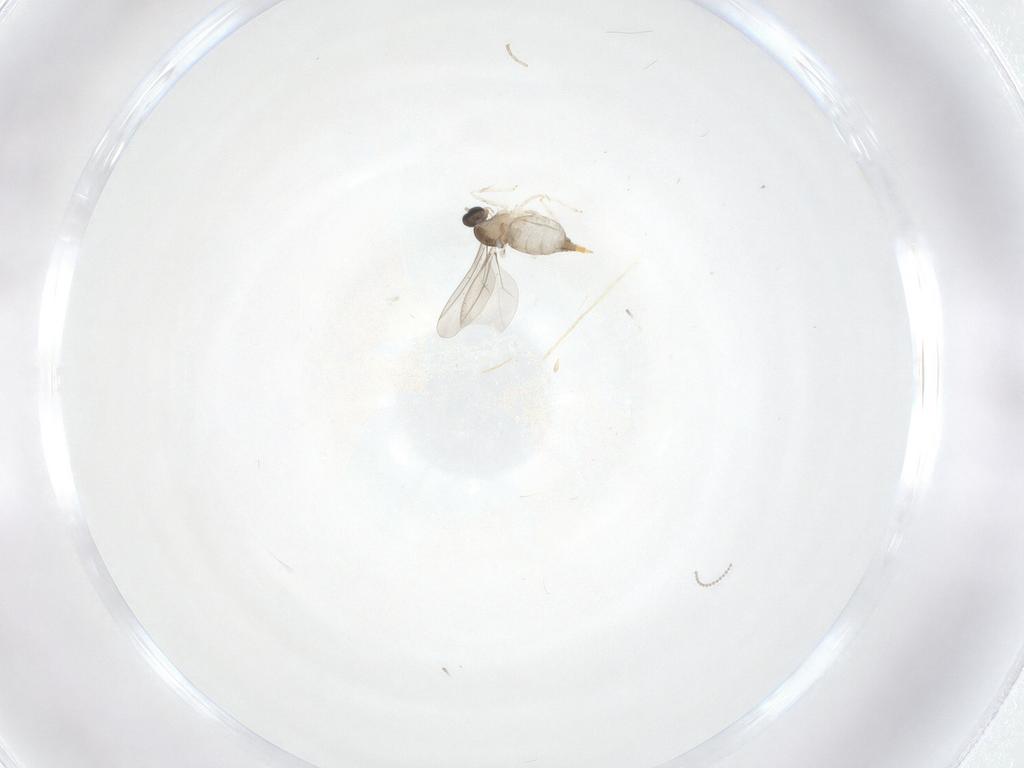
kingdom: Animalia
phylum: Arthropoda
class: Insecta
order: Diptera
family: Cecidomyiidae
